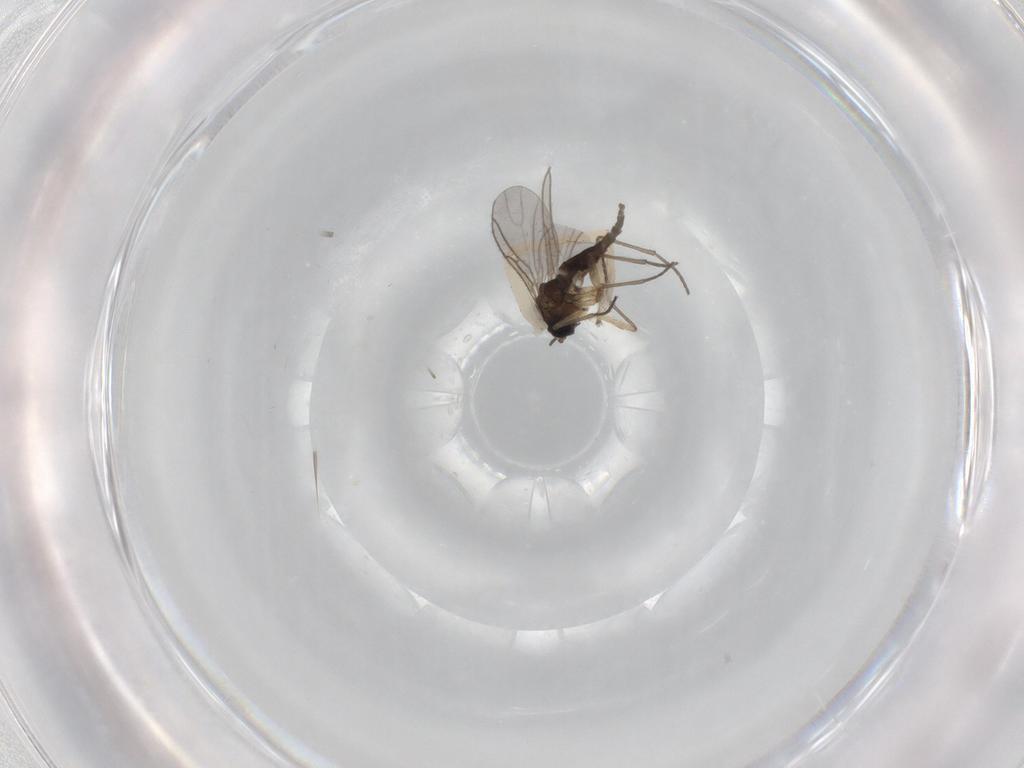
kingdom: Animalia
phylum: Arthropoda
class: Insecta
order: Diptera
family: Sciaridae
